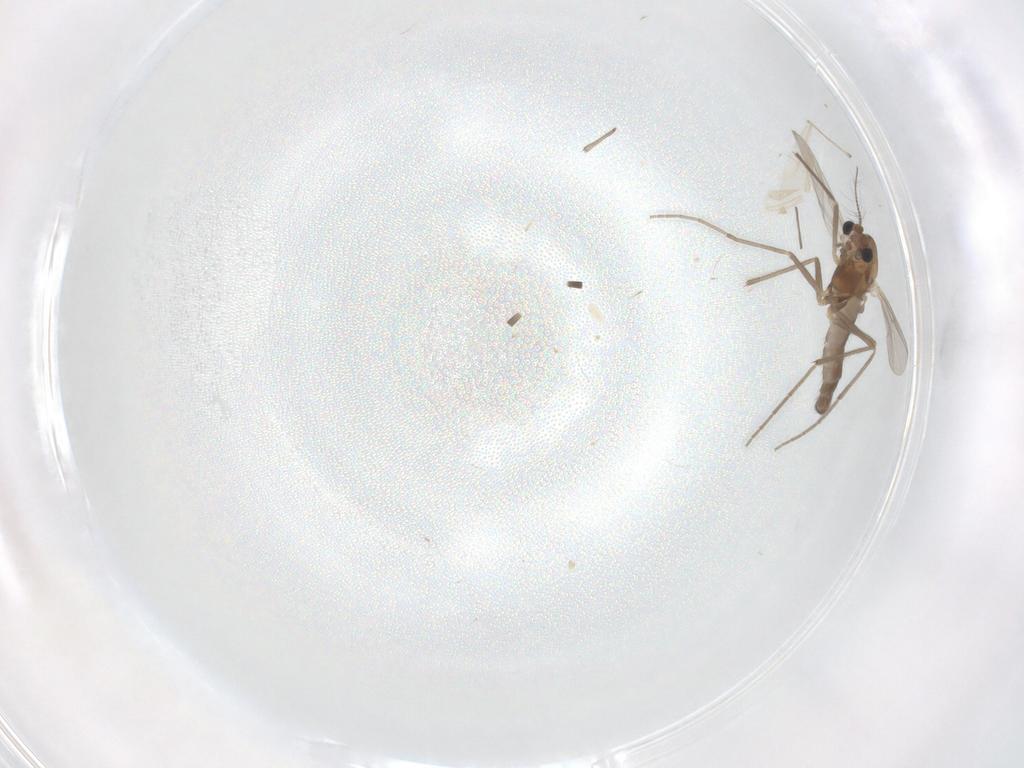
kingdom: Animalia
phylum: Arthropoda
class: Insecta
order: Diptera
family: Chironomidae
